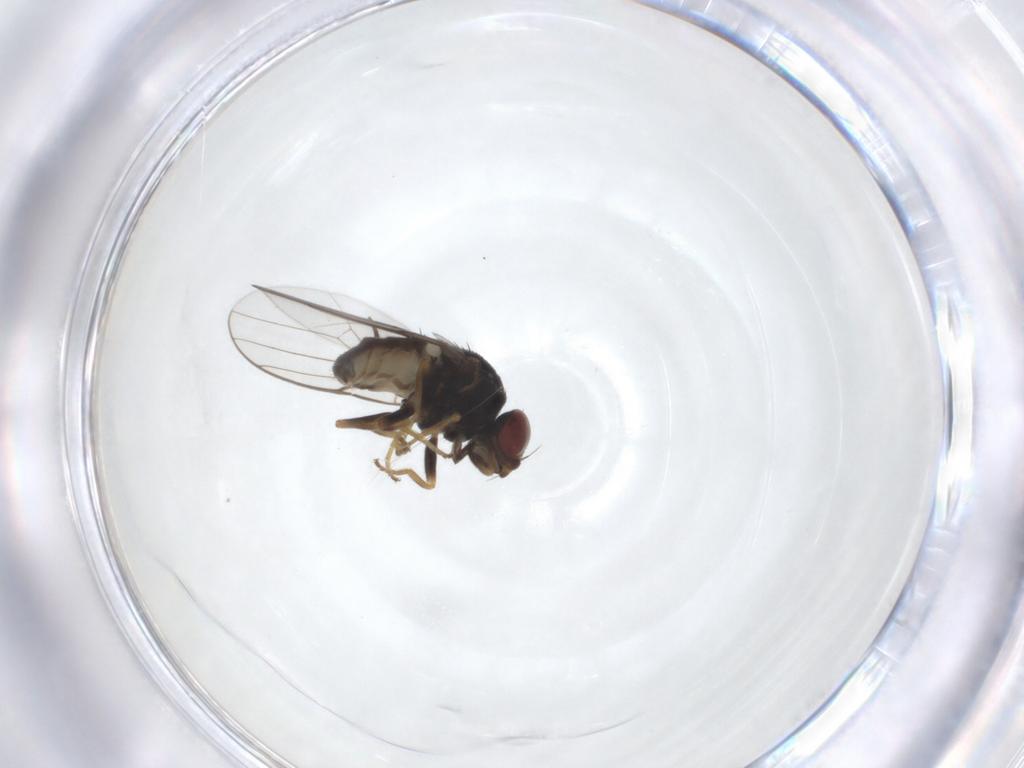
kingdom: Animalia
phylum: Arthropoda
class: Insecta
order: Diptera
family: Chloropidae
